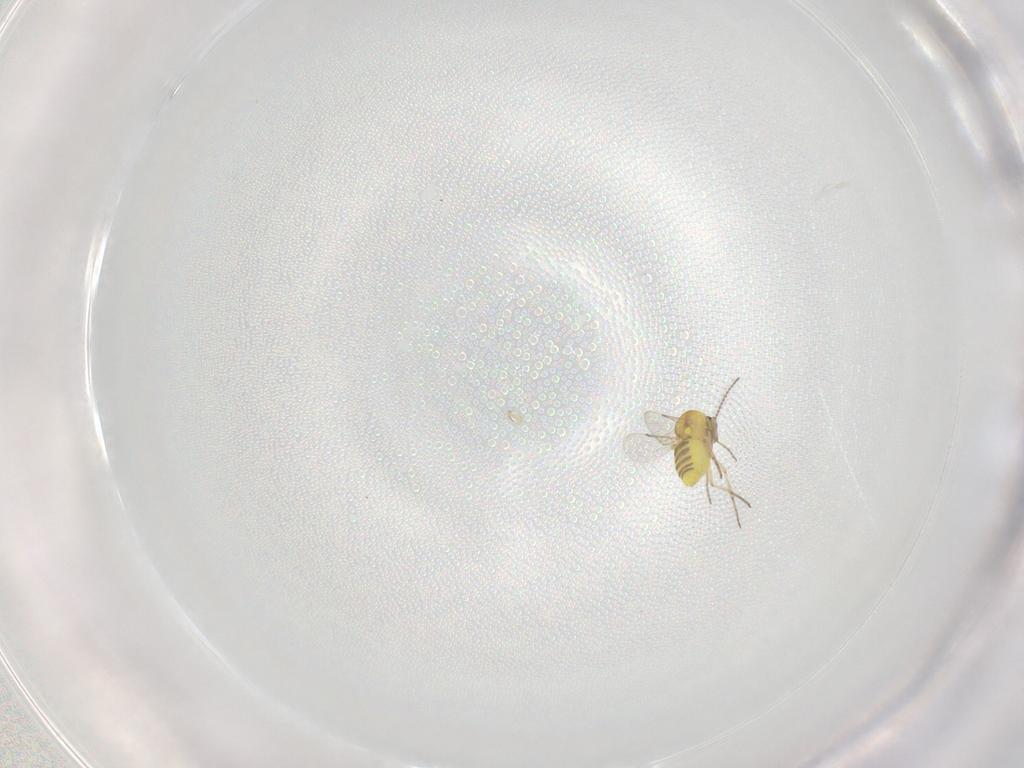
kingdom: Animalia
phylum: Arthropoda
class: Insecta
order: Diptera
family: Ceratopogonidae
